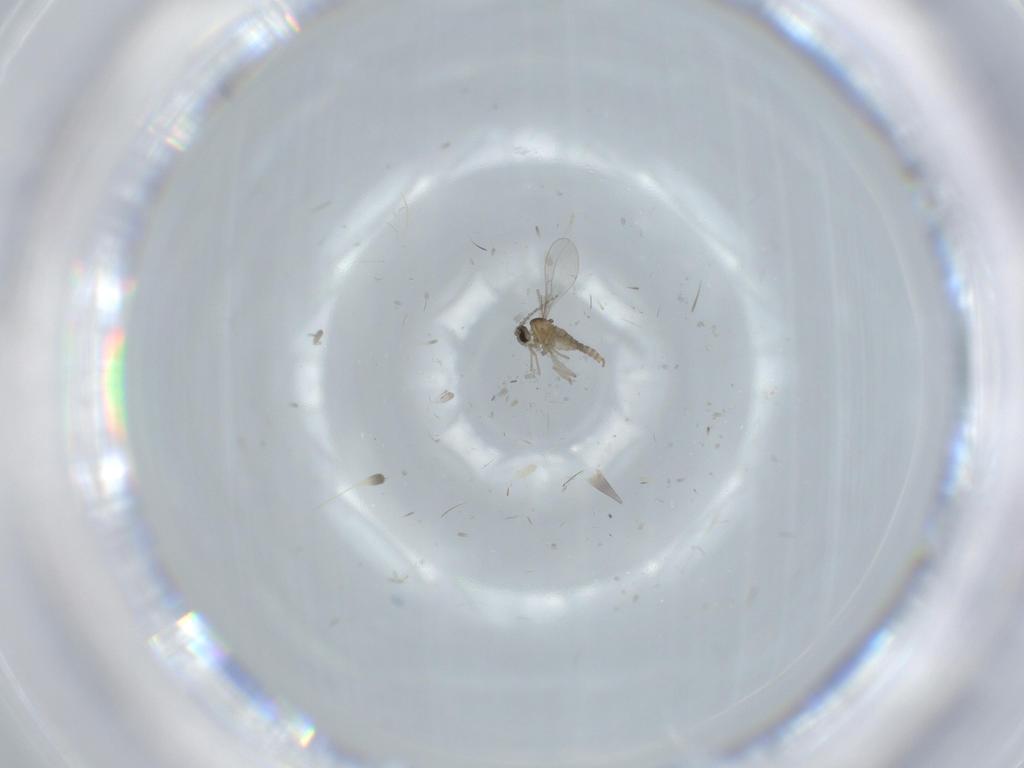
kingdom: Animalia
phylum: Arthropoda
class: Insecta
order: Diptera
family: Cecidomyiidae
